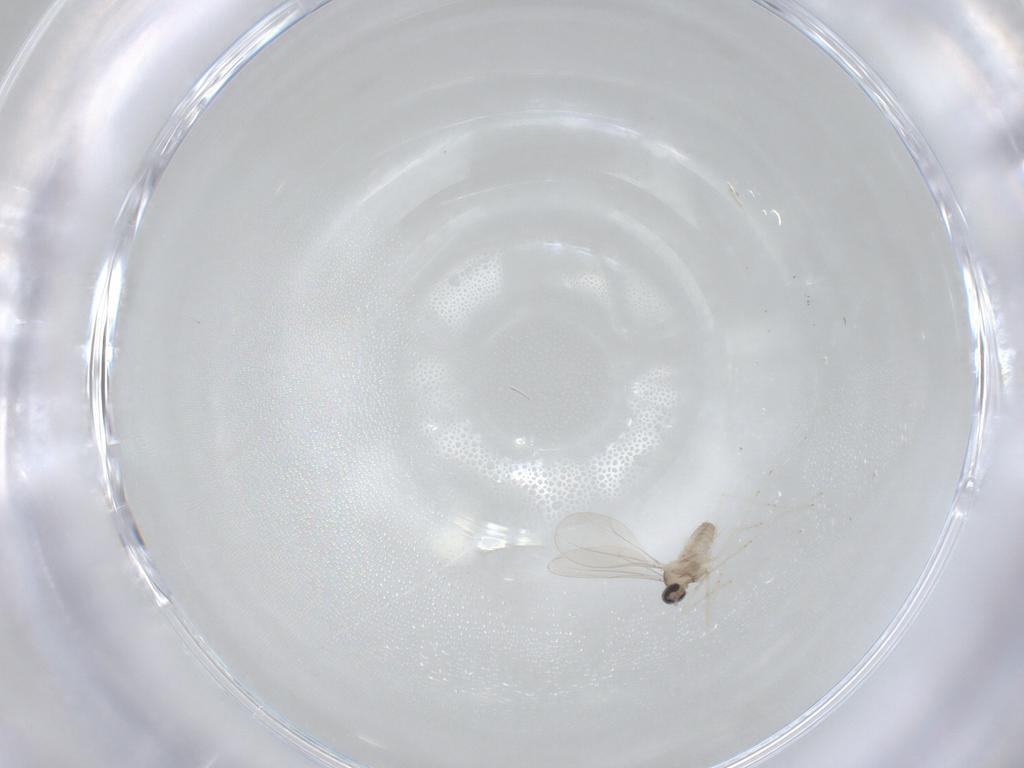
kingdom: Animalia
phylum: Arthropoda
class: Insecta
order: Diptera
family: Cecidomyiidae
